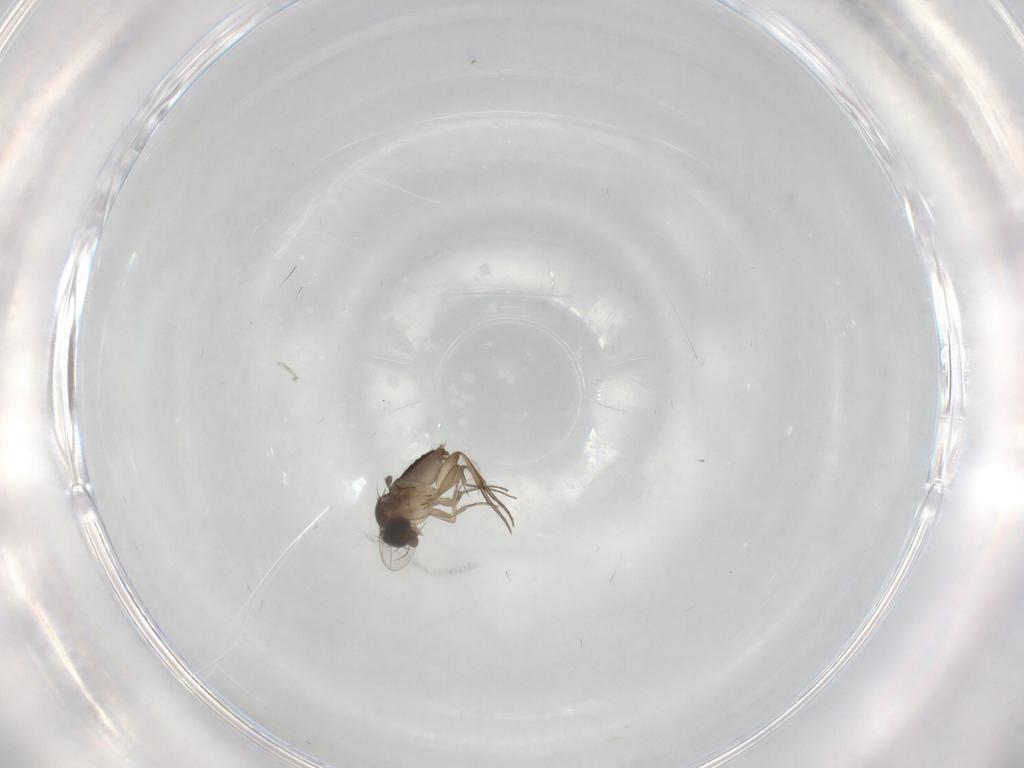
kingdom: Animalia
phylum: Arthropoda
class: Insecta
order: Diptera
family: Phoridae
